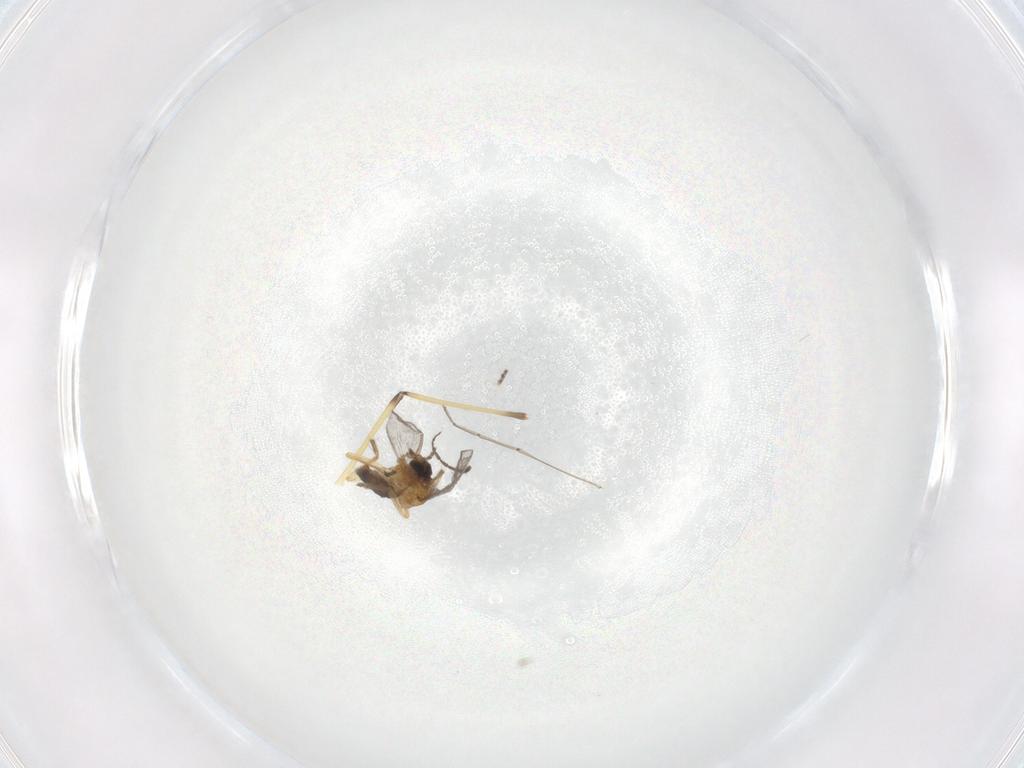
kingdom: Animalia
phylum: Arthropoda
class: Insecta
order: Diptera
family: Ceratopogonidae
